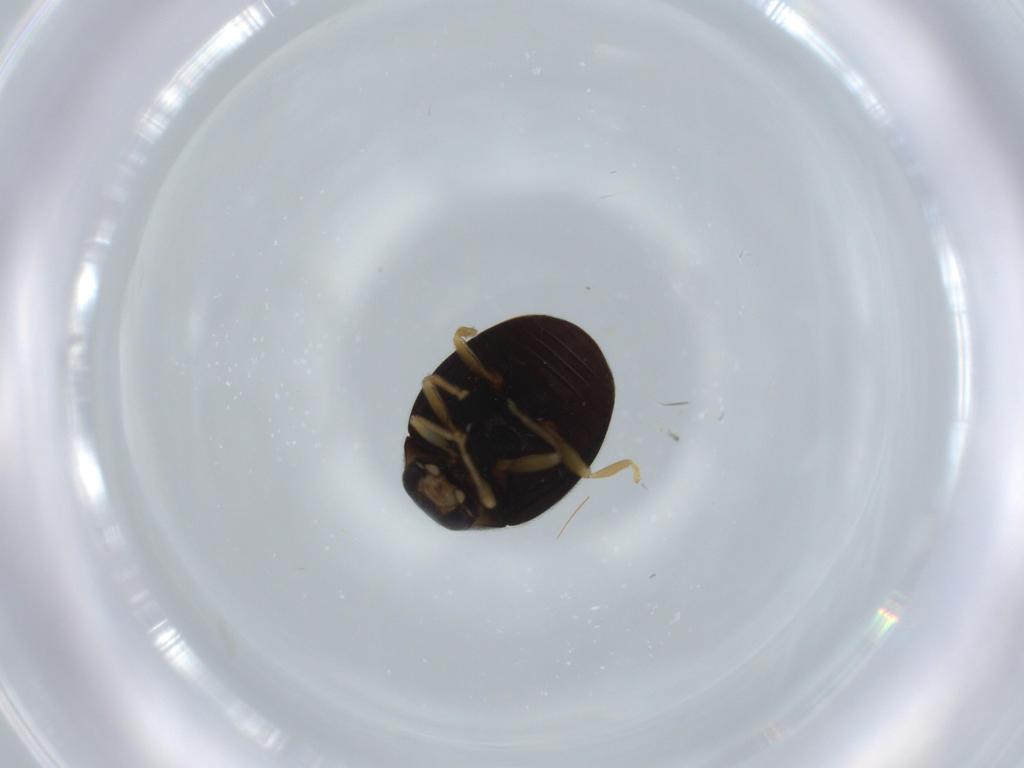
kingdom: Animalia
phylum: Arthropoda
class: Insecta
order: Coleoptera
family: Coccinellidae
